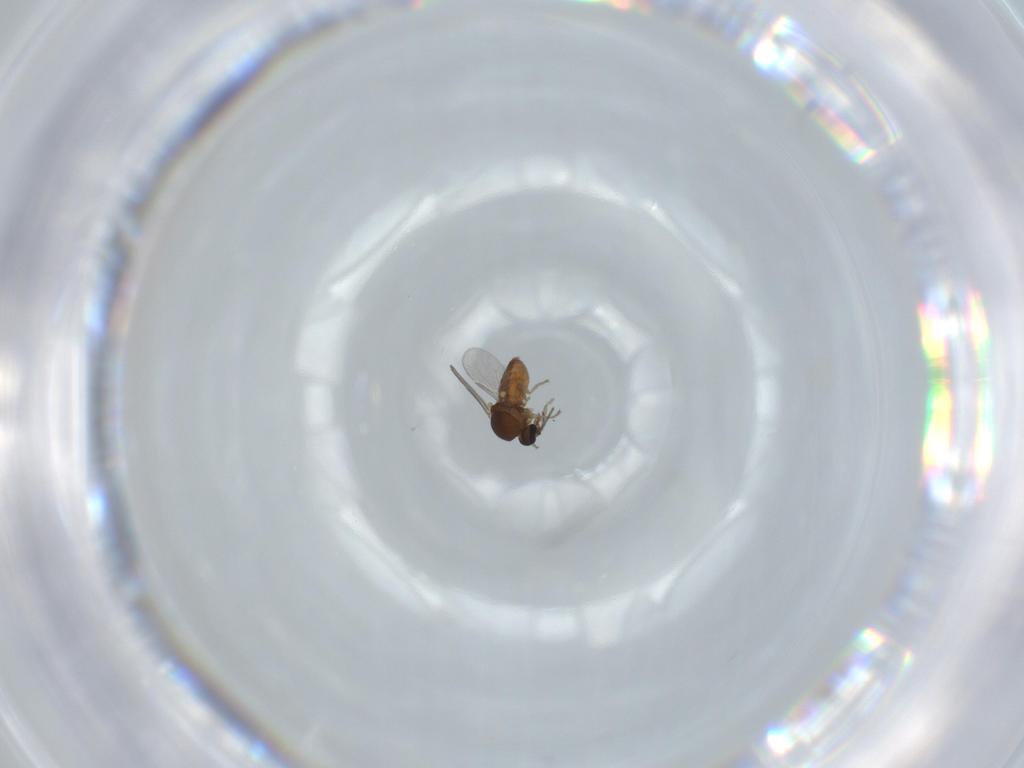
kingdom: Animalia
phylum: Arthropoda
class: Insecta
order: Diptera
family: Ceratopogonidae
